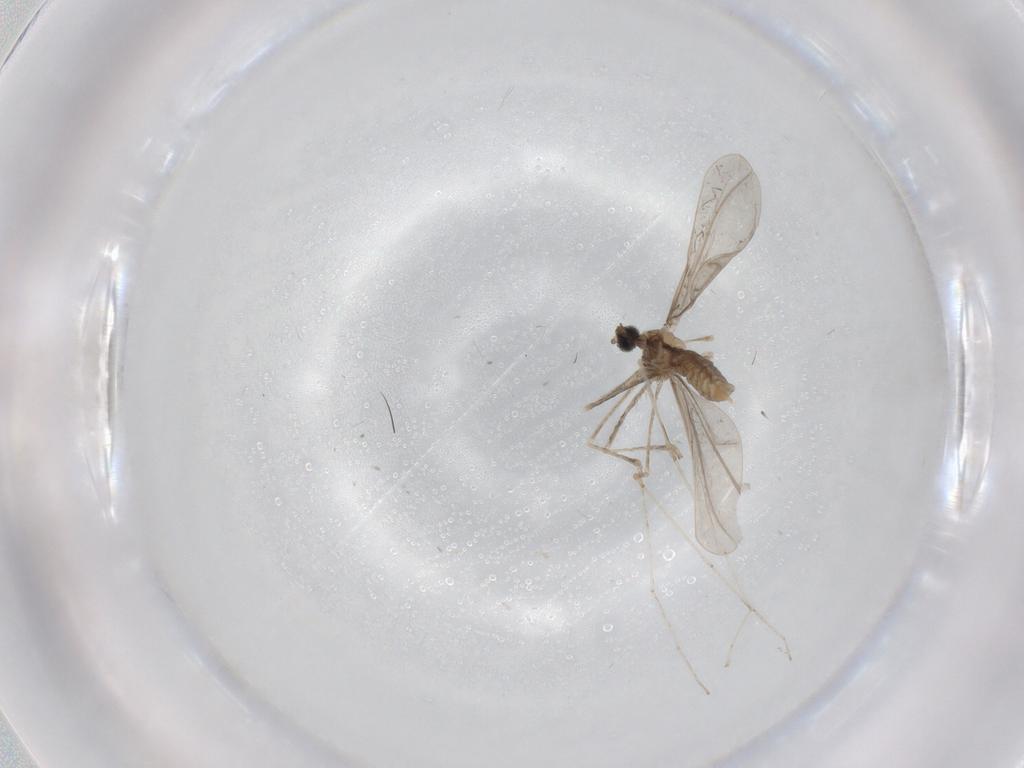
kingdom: Animalia
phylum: Arthropoda
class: Insecta
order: Diptera
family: Cecidomyiidae
